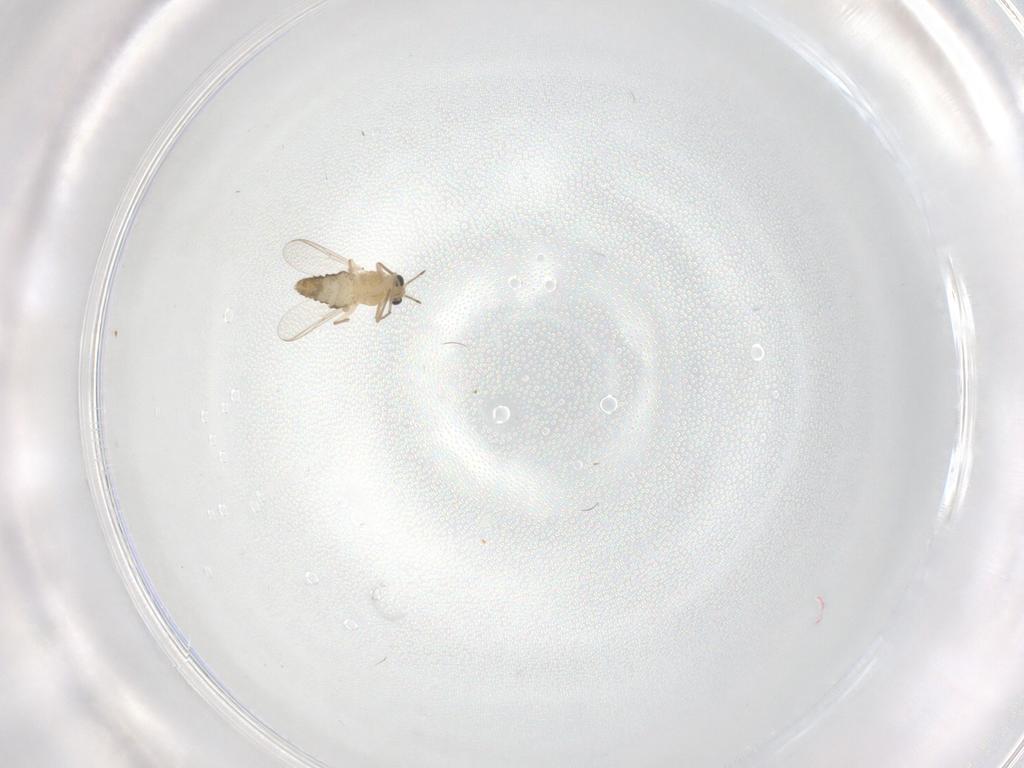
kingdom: Animalia
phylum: Arthropoda
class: Insecta
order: Diptera
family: Chironomidae
